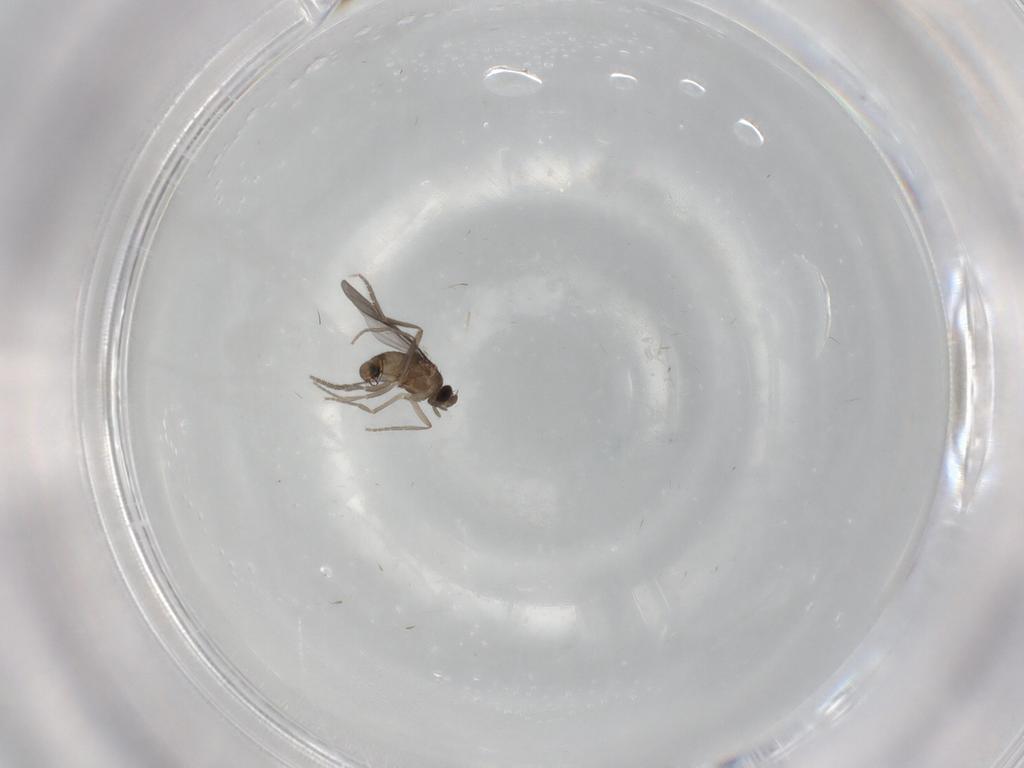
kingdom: Animalia
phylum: Arthropoda
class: Insecta
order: Diptera
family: Phoridae
